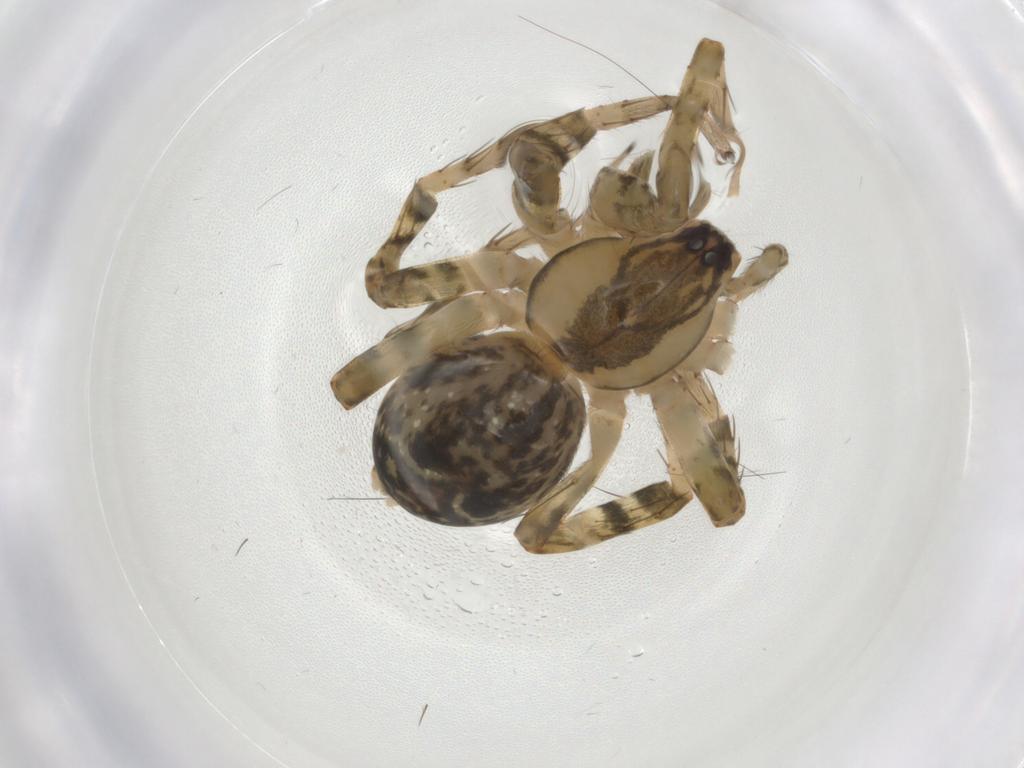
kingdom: Animalia
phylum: Arthropoda
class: Arachnida
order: Araneae
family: Amaurobiidae
